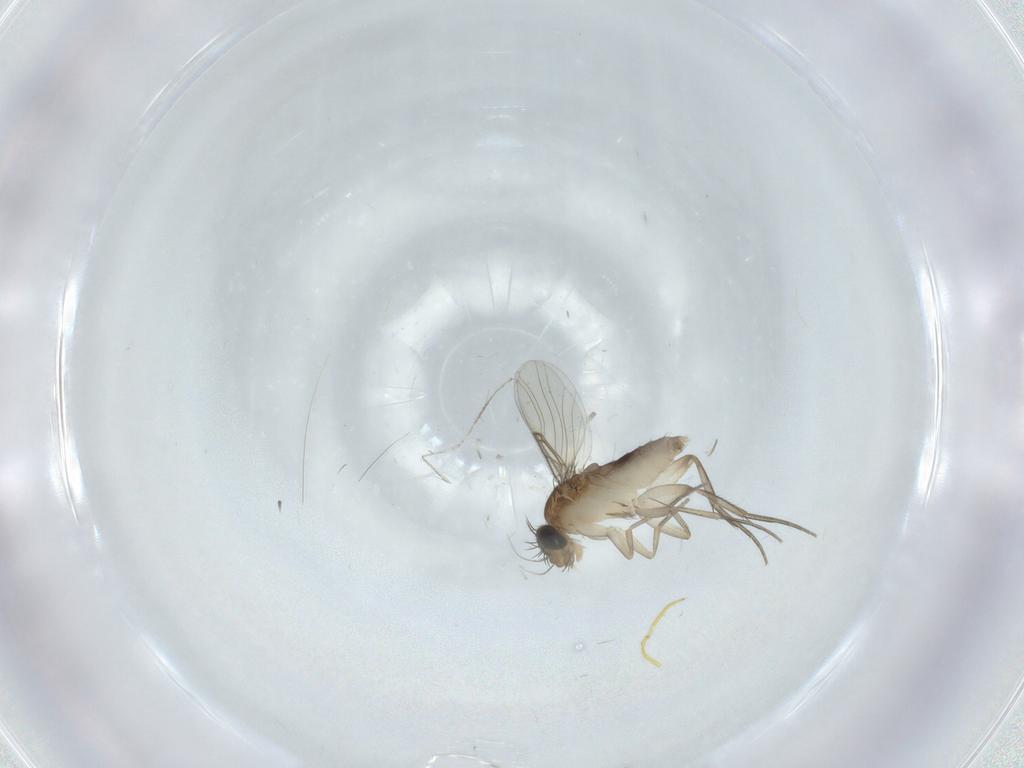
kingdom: Animalia
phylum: Arthropoda
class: Insecta
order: Diptera
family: Phoridae
